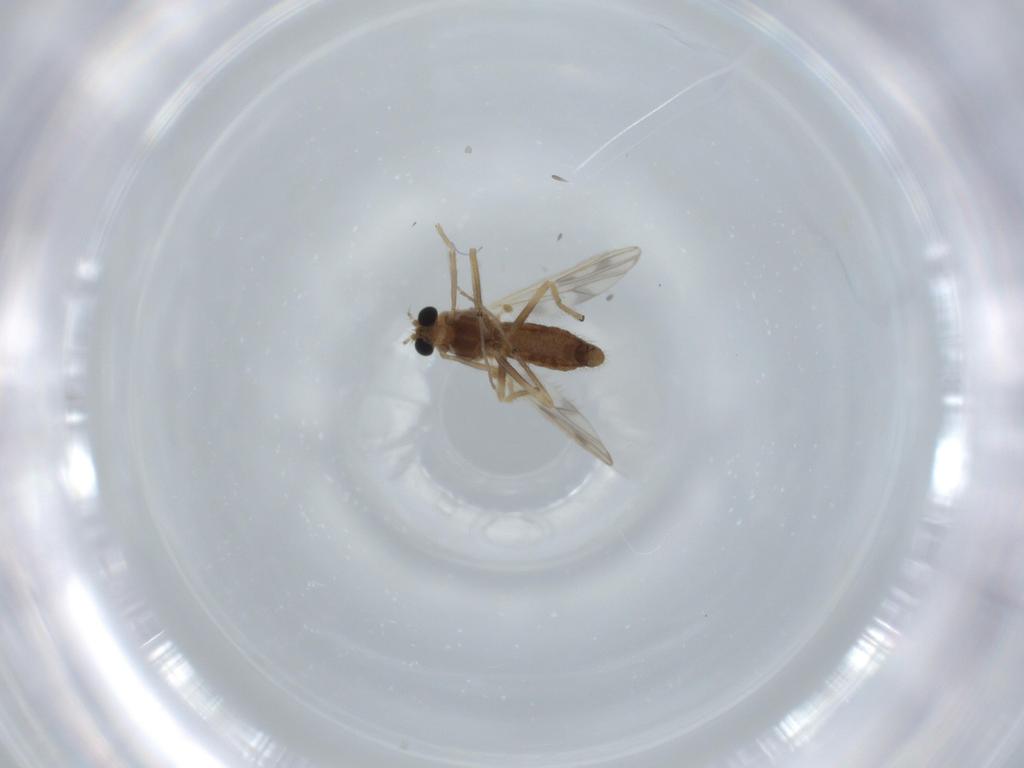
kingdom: Animalia
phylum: Arthropoda
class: Insecta
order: Diptera
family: Chironomidae
